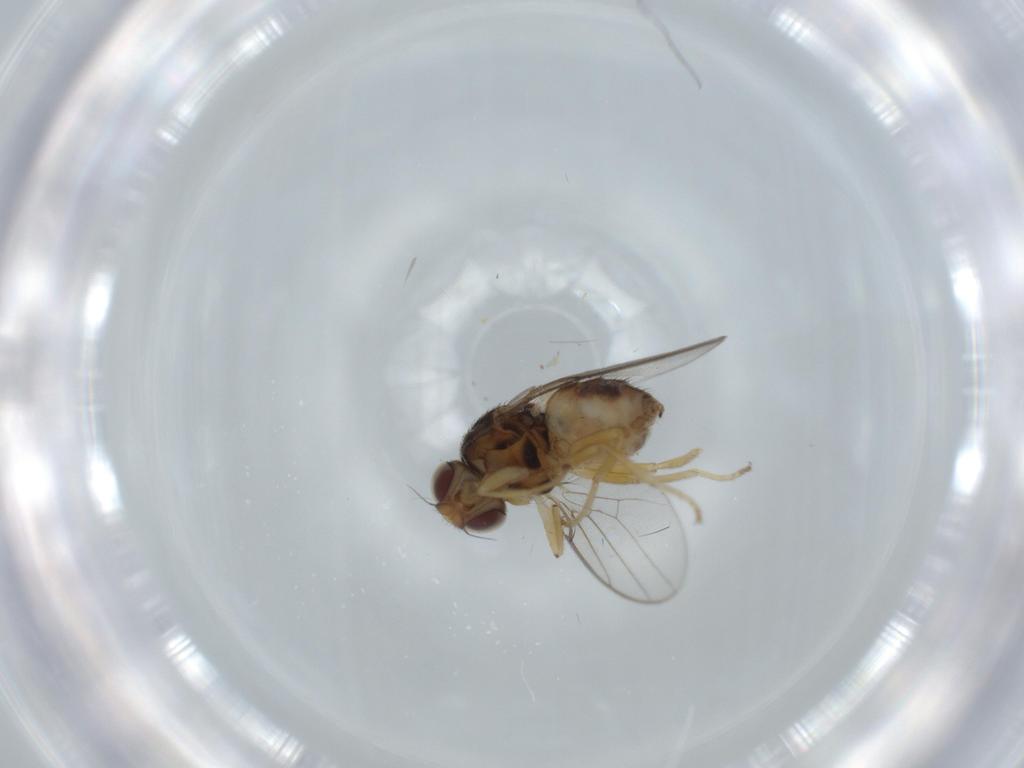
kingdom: Animalia
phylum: Arthropoda
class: Insecta
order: Diptera
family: Chloropidae
